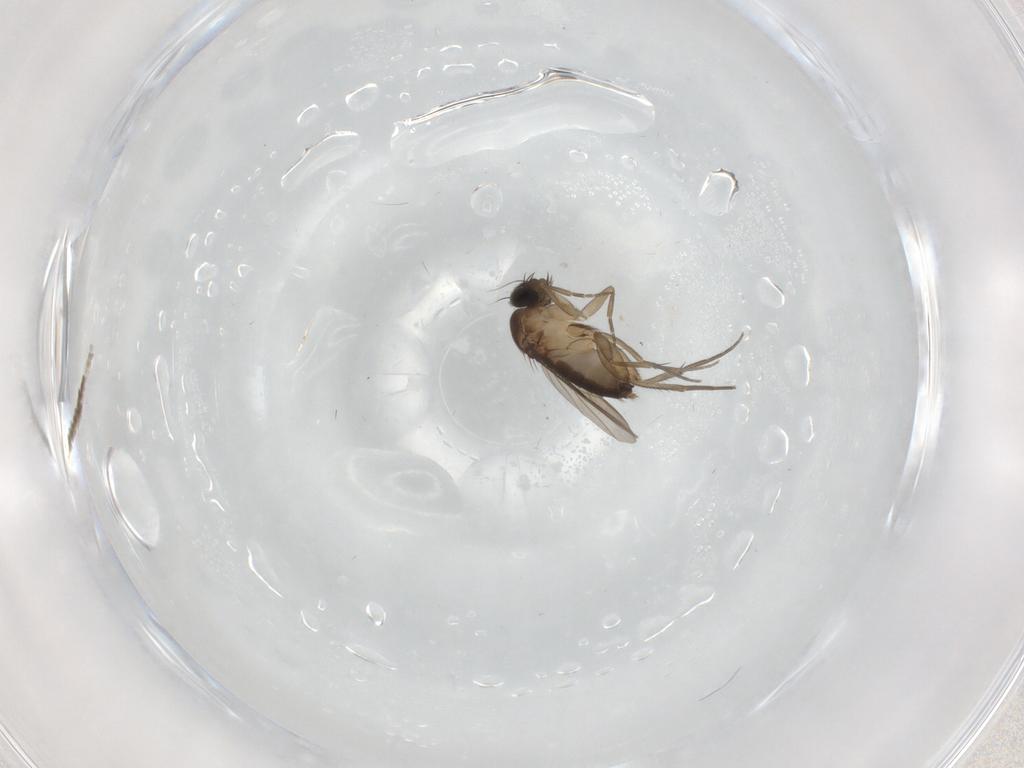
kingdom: Animalia
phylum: Arthropoda
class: Insecta
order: Diptera
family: Phoridae
